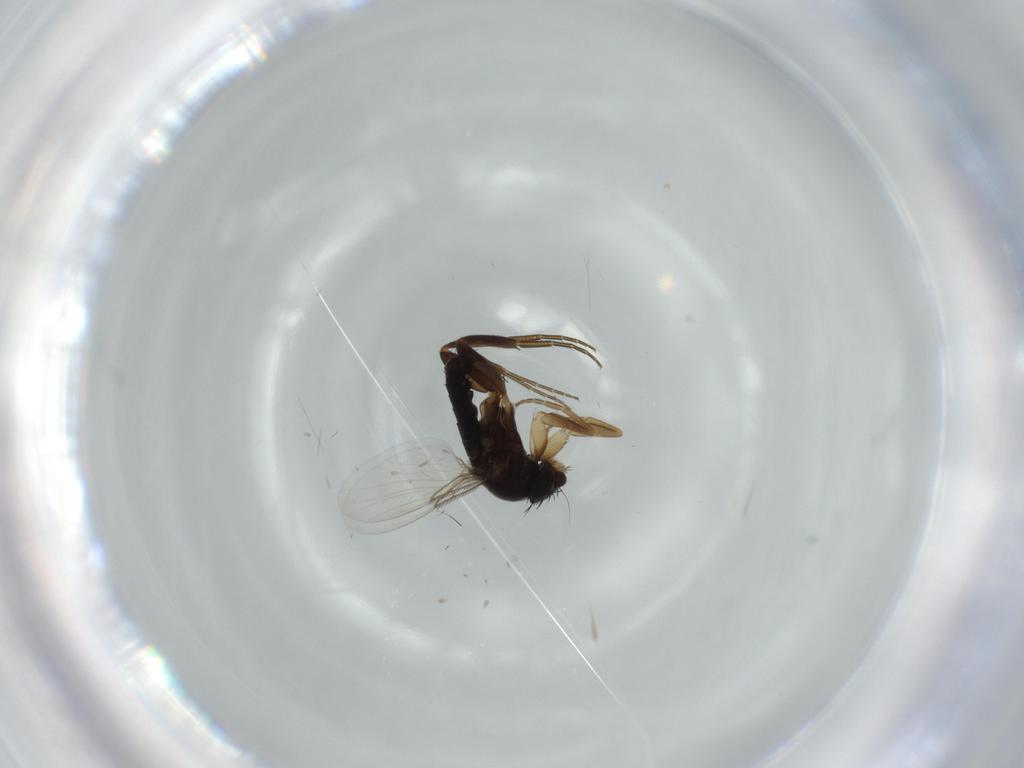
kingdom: Animalia
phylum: Arthropoda
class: Insecta
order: Diptera
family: Phoridae
